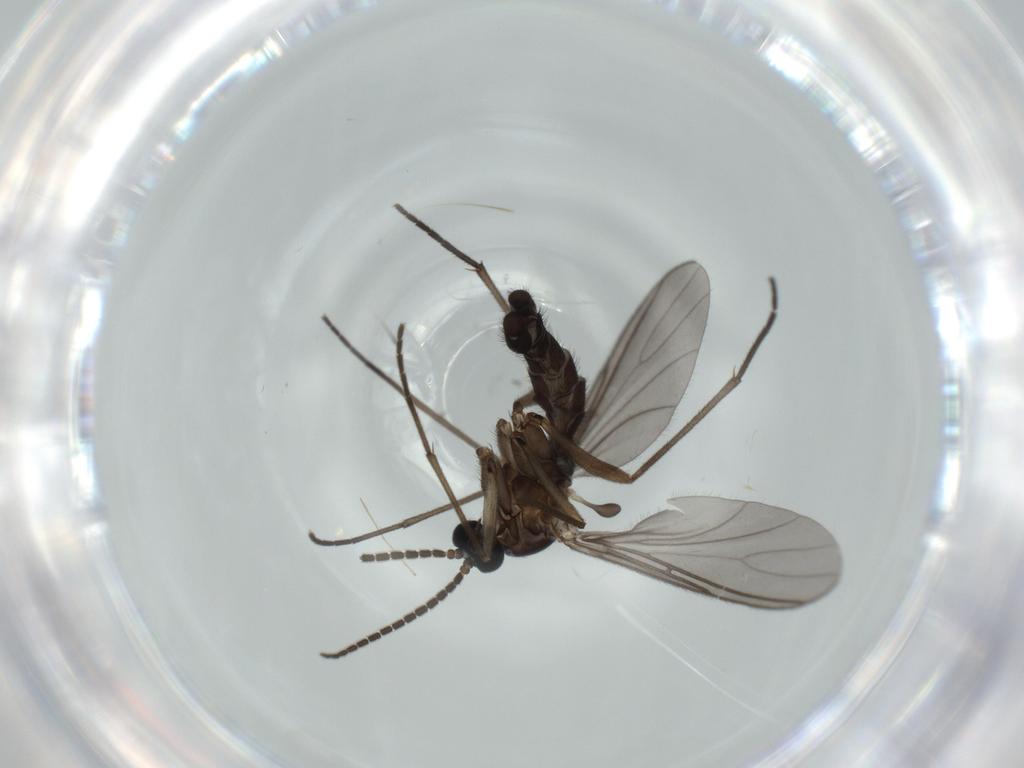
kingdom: Animalia
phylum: Arthropoda
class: Insecta
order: Diptera
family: Sciaridae
